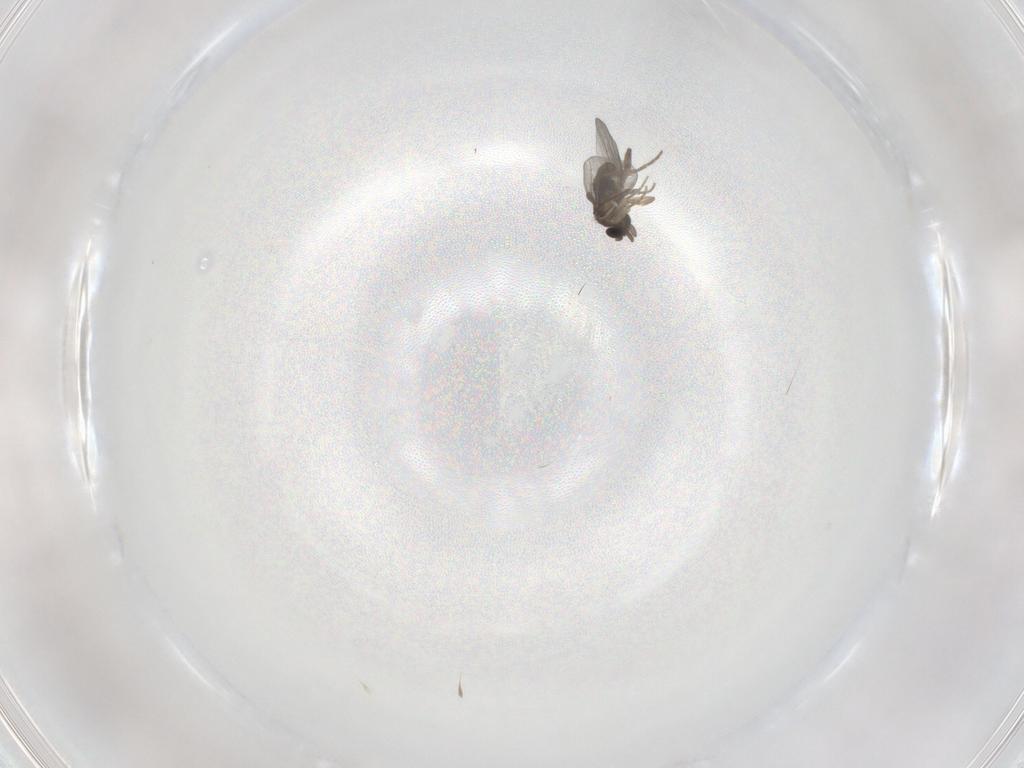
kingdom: Animalia
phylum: Arthropoda
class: Insecta
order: Diptera
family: Limoniidae
